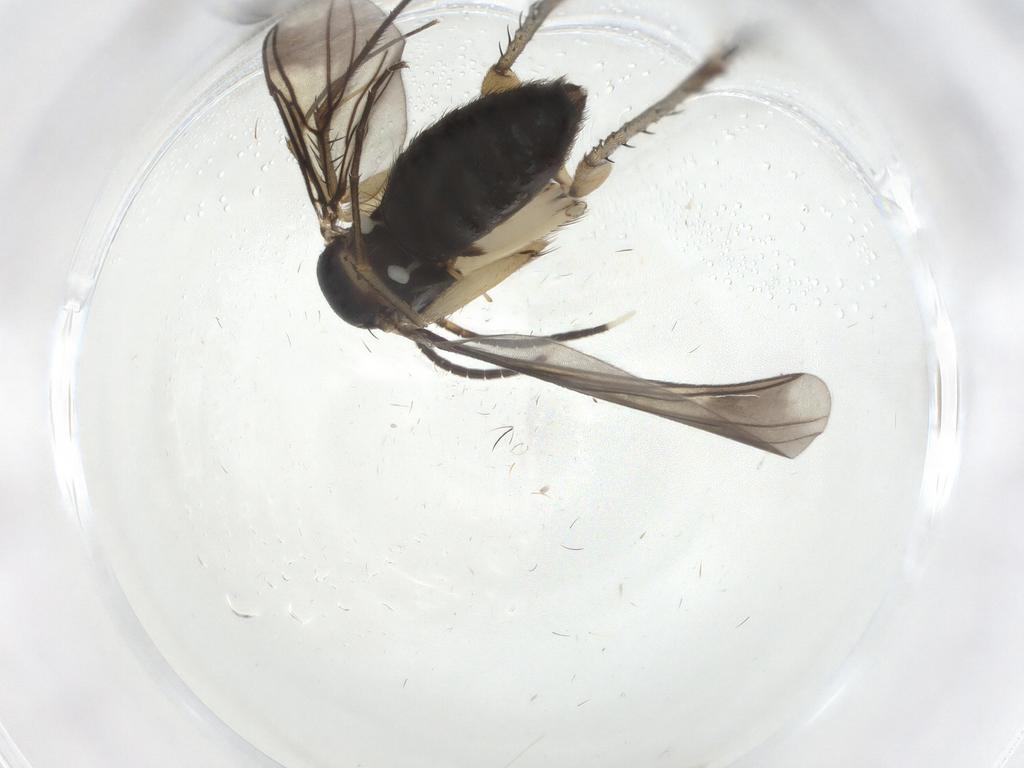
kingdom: Animalia
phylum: Arthropoda
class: Insecta
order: Diptera
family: Mycetophilidae
